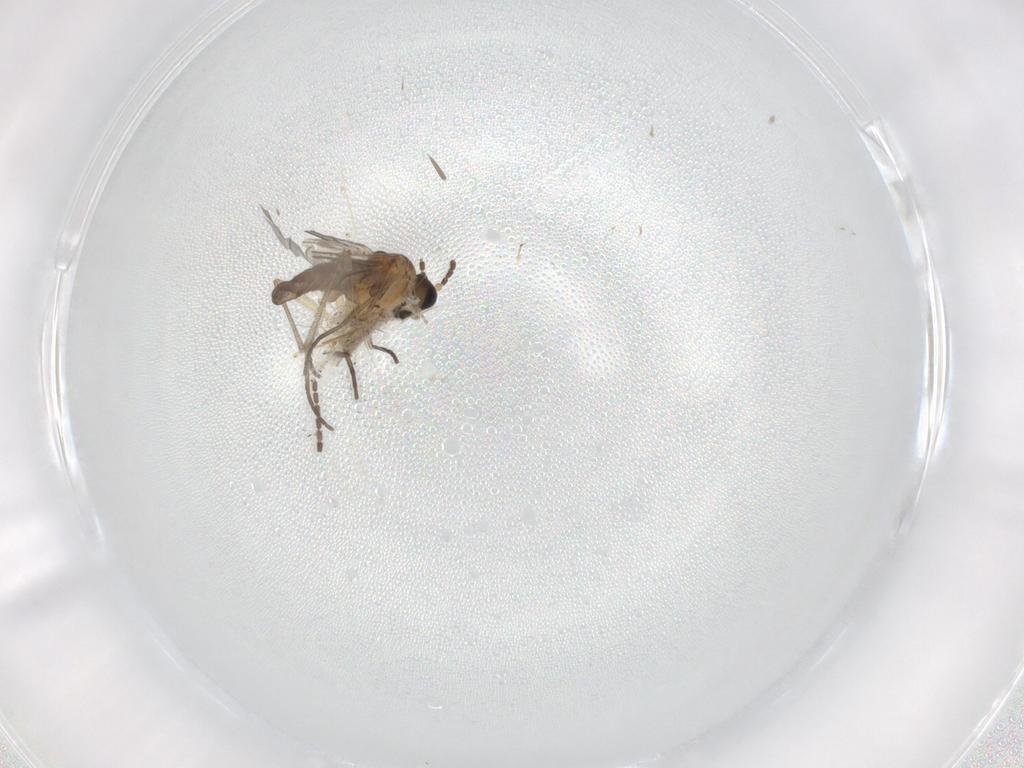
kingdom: Animalia
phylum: Arthropoda
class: Insecta
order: Diptera
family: Sciaridae
